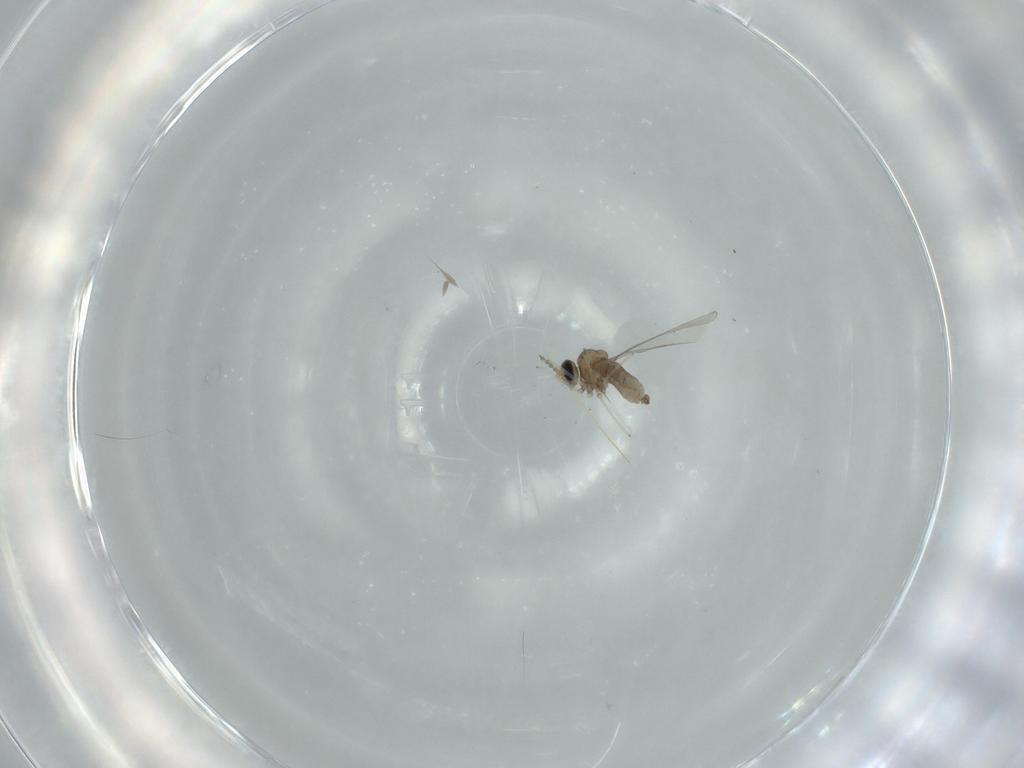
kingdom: Animalia
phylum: Arthropoda
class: Insecta
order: Diptera
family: Cecidomyiidae
